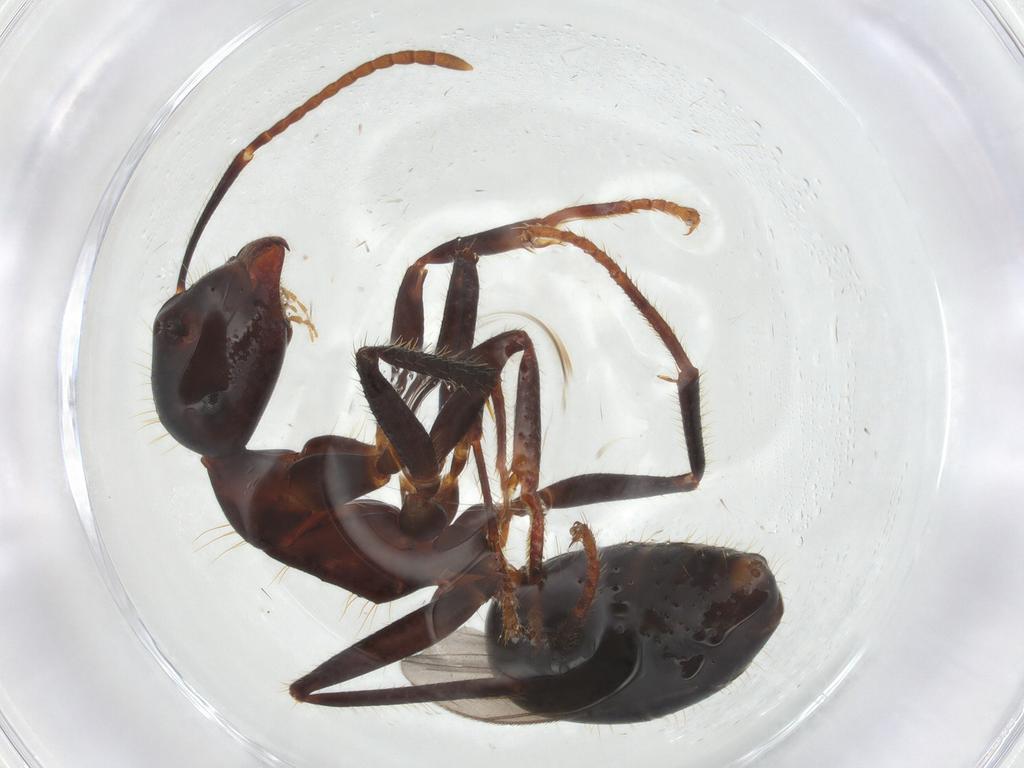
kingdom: Animalia
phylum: Arthropoda
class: Insecta
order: Hymenoptera
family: Formicidae
